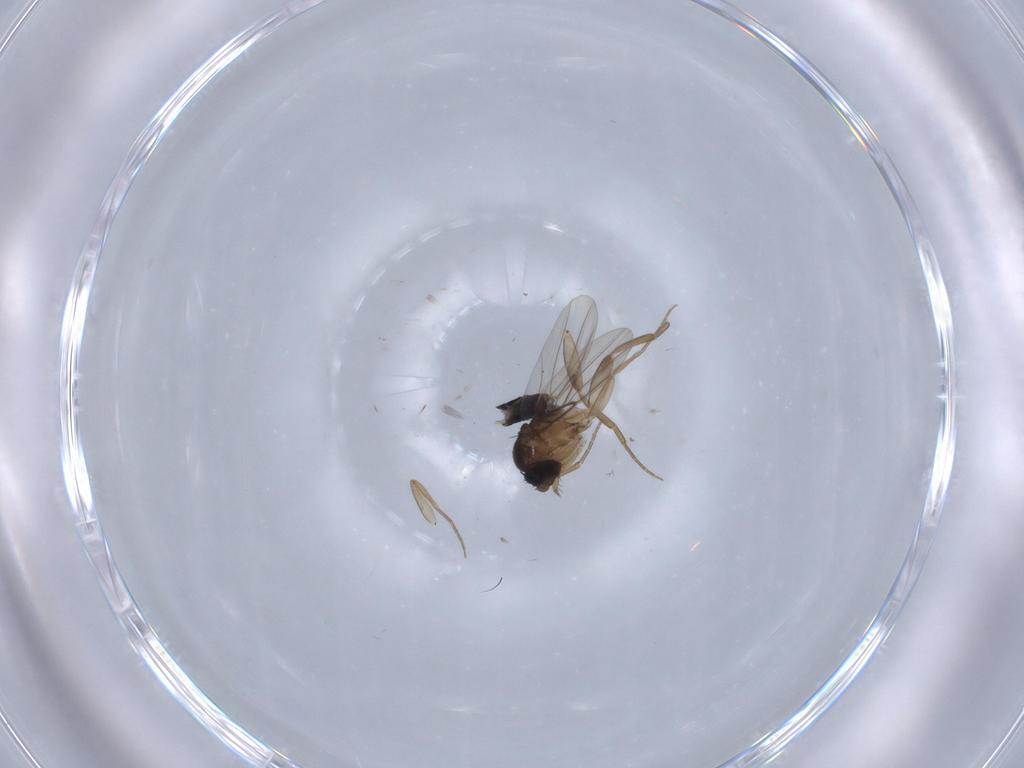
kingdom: Animalia
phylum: Arthropoda
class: Insecta
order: Diptera
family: Phoridae
